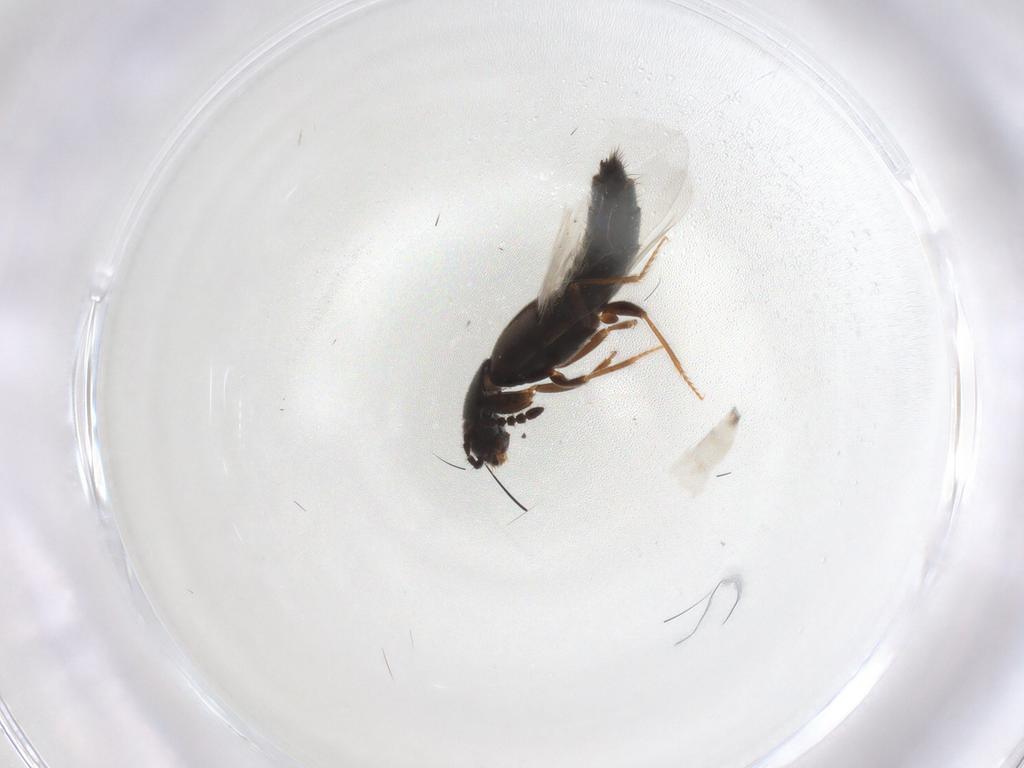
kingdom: Animalia
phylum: Arthropoda
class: Insecta
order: Coleoptera
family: Staphylinidae
